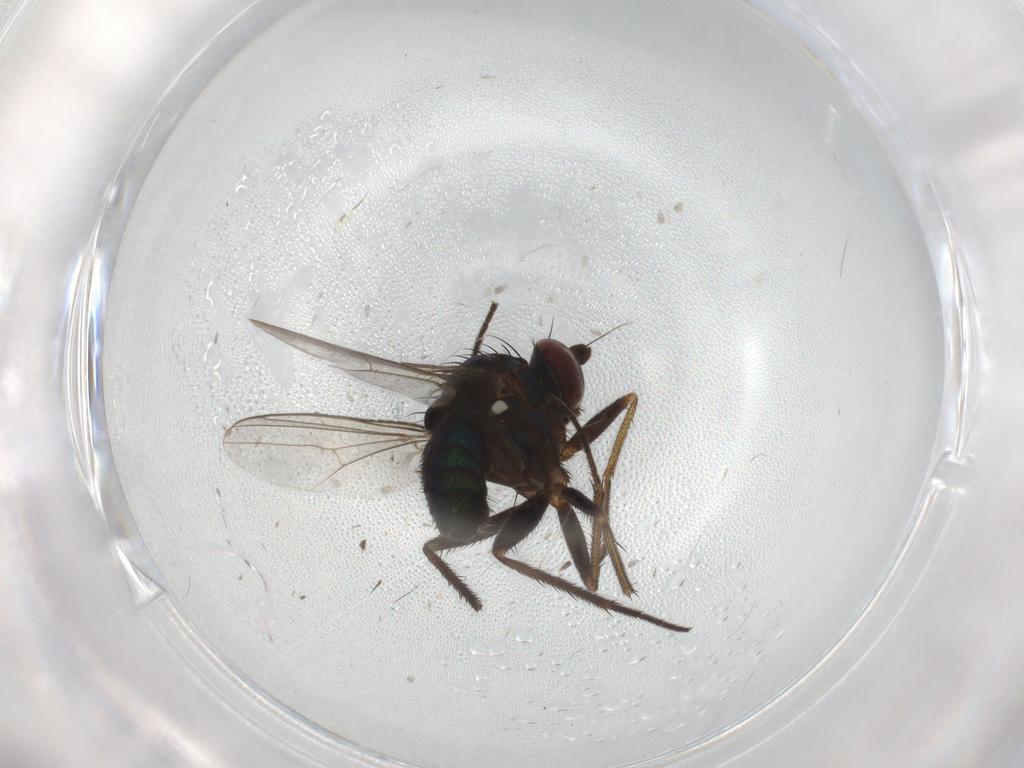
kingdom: Animalia
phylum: Arthropoda
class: Insecta
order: Diptera
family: Dolichopodidae
